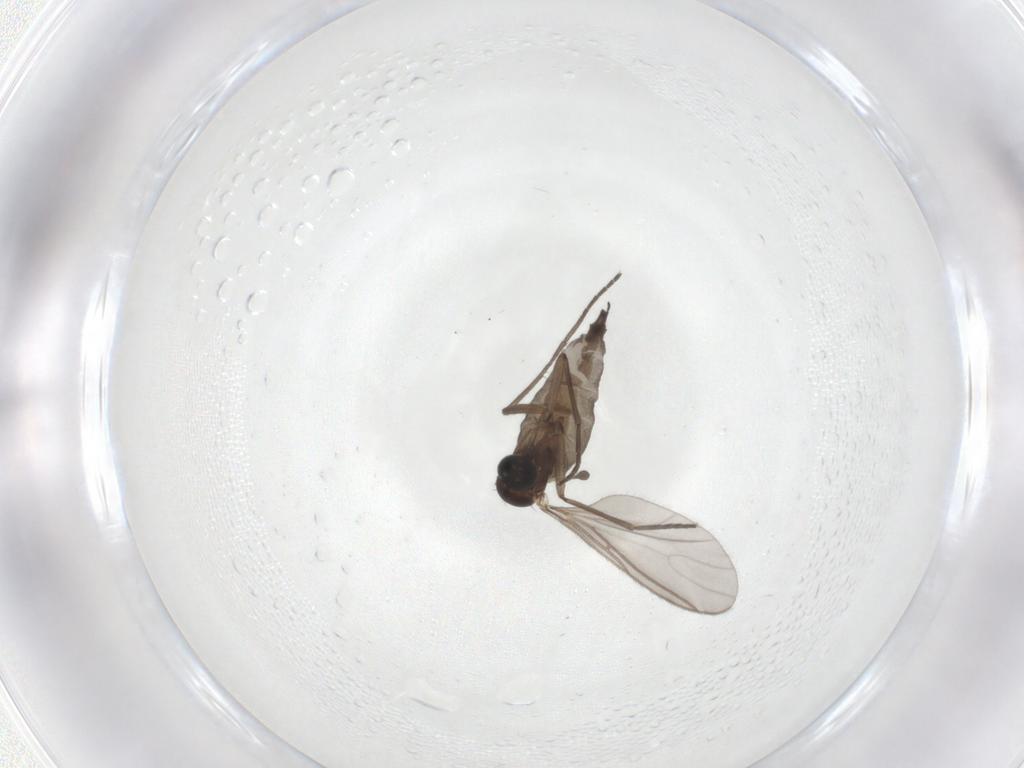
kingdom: Animalia
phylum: Arthropoda
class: Insecta
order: Diptera
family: Sciaridae
